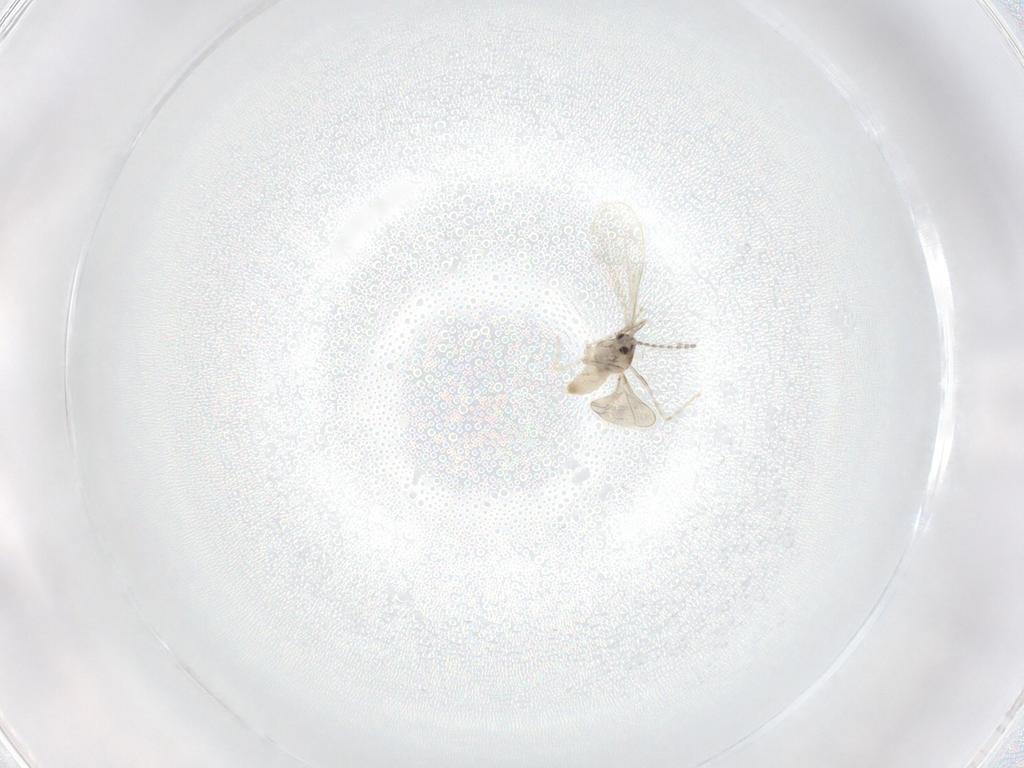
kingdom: Animalia
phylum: Arthropoda
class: Insecta
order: Diptera
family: Cecidomyiidae
